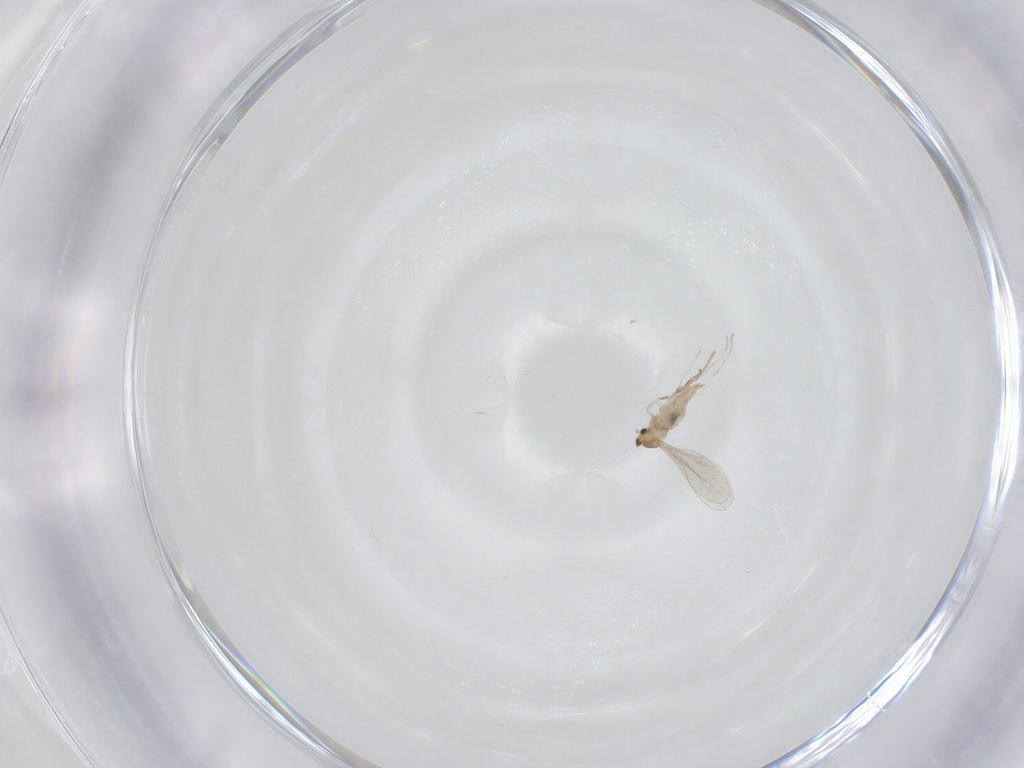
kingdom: Animalia
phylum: Arthropoda
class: Insecta
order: Diptera
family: Cecidomyiidae
